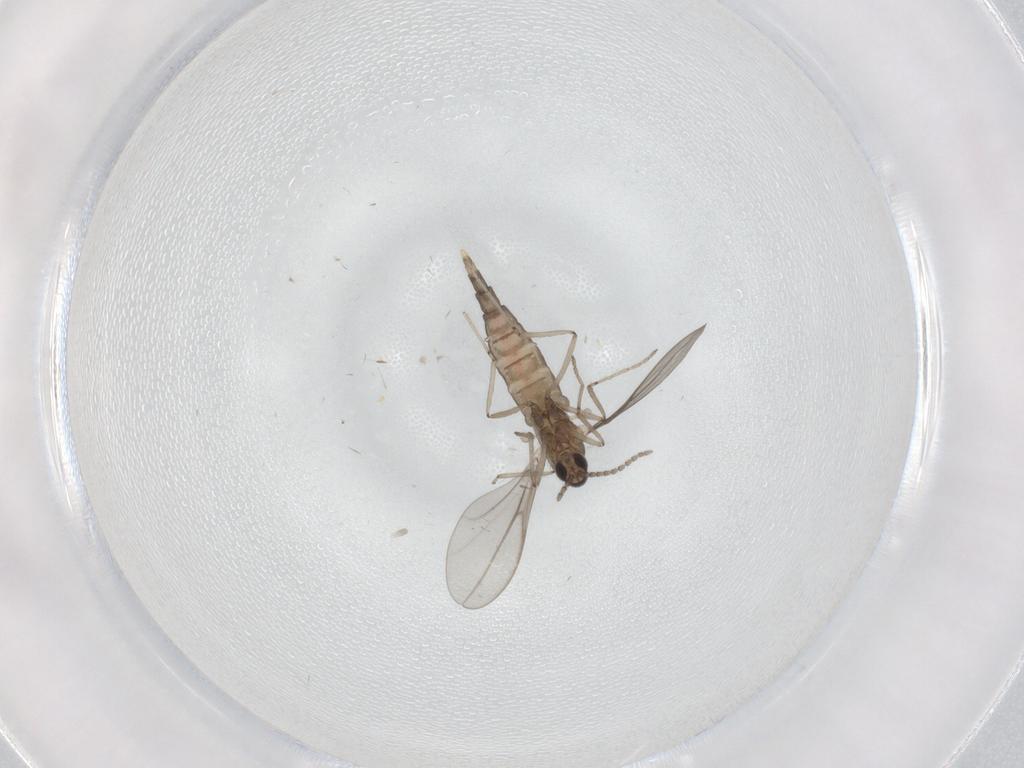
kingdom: Animalia
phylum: Arthropoda
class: Insecta
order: Diptera
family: Cecidomyiidae
